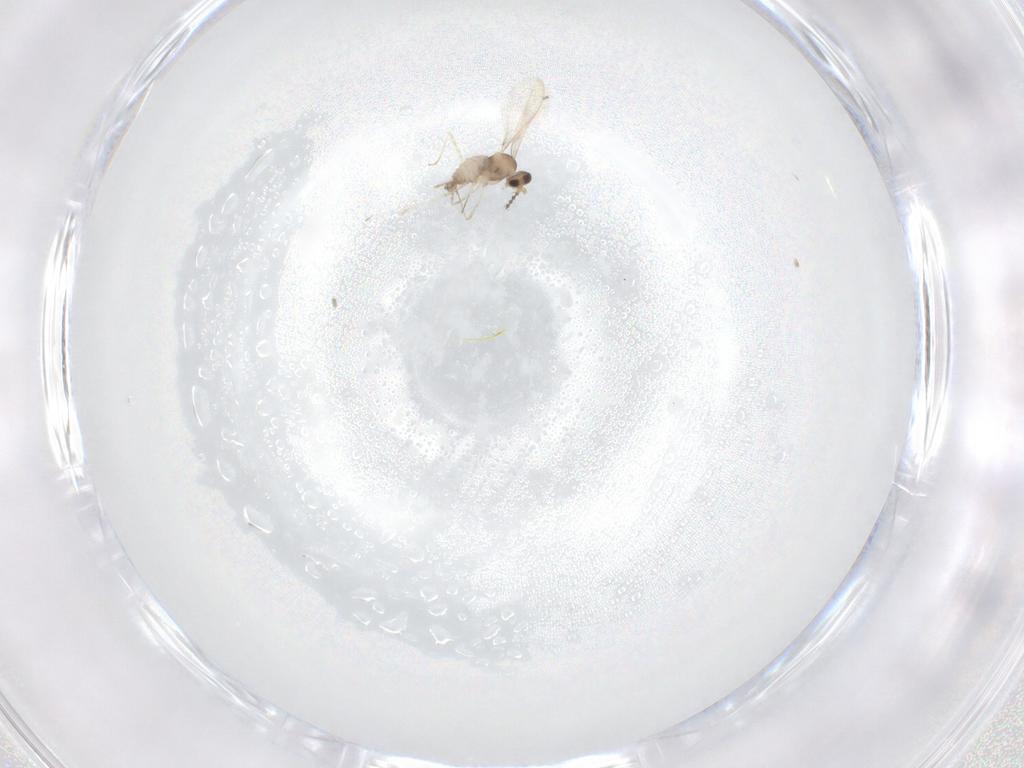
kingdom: Animalia
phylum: Arthropoda
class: Insecta
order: Diptera
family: Cecidomyiidae
